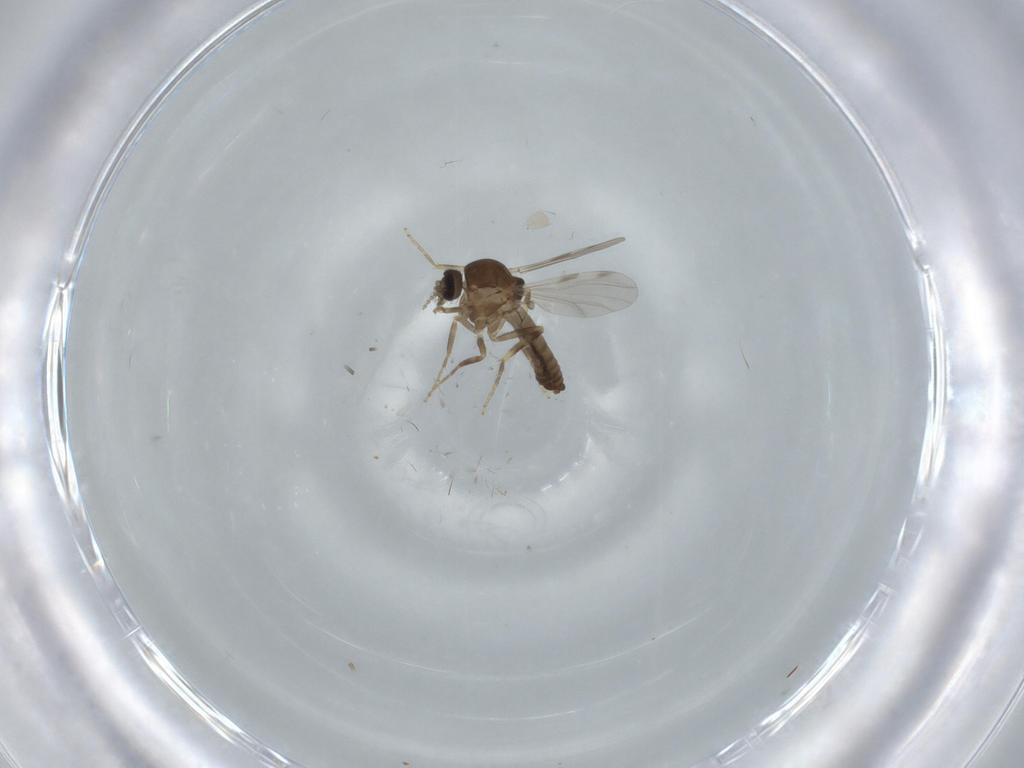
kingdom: Animalia
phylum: Arthropoda
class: Insecta
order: Diptera
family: Ceratopogonidae
